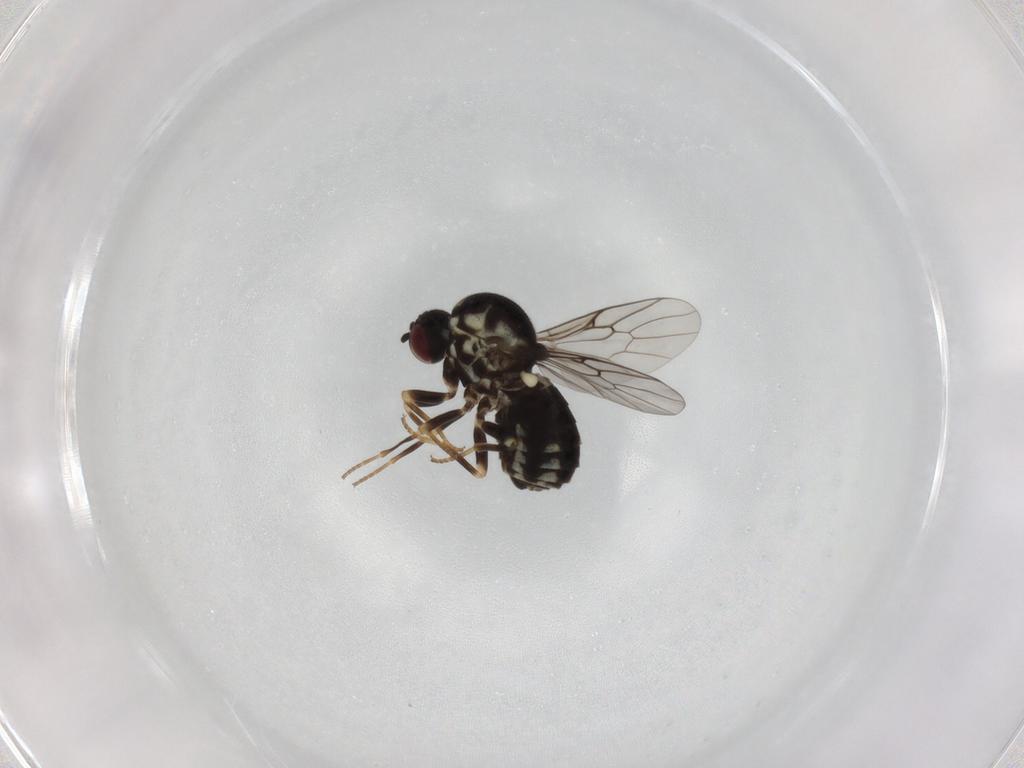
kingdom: Animalia
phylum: Arthropoda
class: Insecta
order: Diptera
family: Bombyliidae
